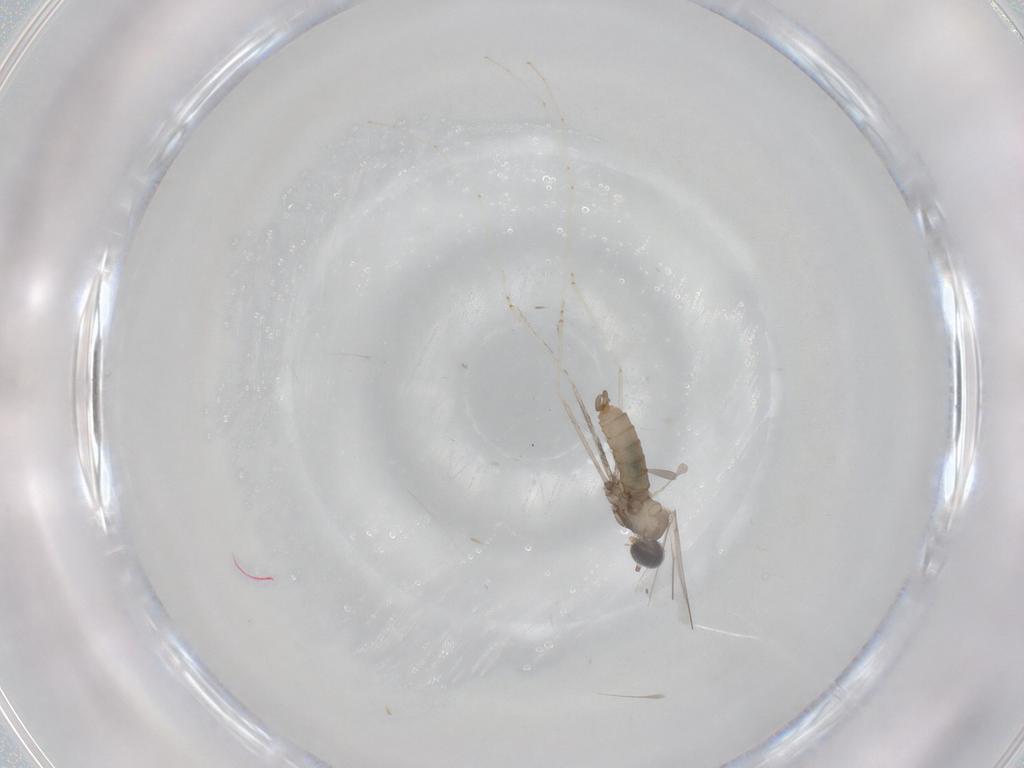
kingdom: Animalia
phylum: Arthropoda
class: Insecta
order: Diptera
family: Cecidomyiidae
